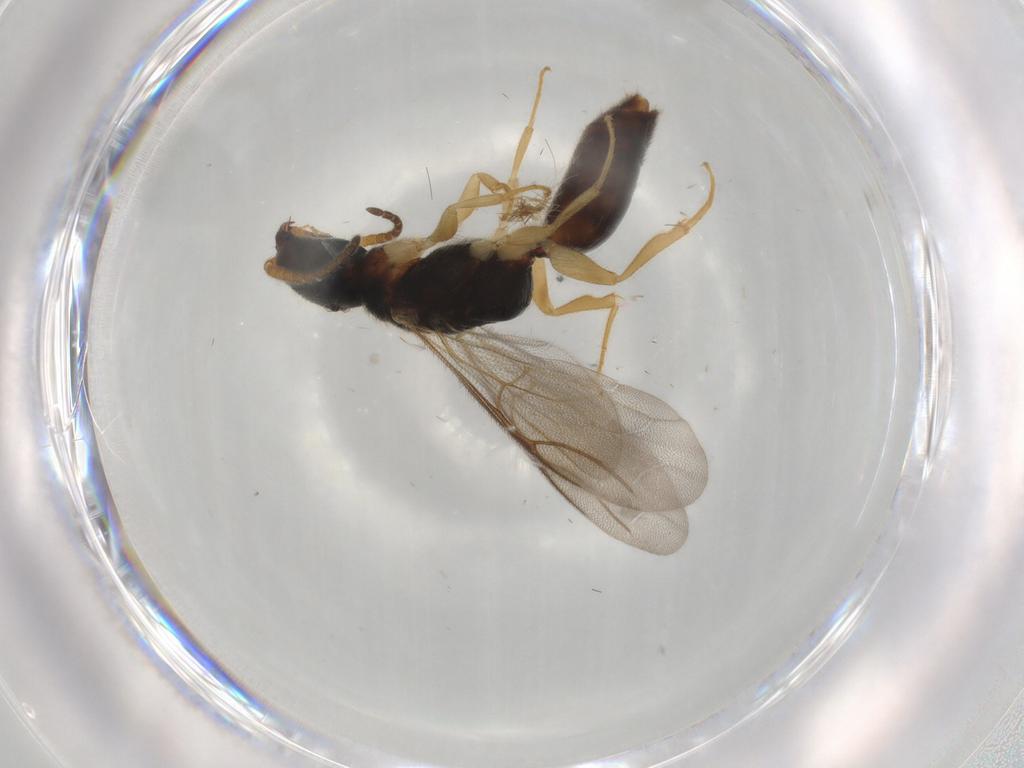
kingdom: Animalia
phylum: Arthropoda
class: Insecta
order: Hymenoptera
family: Bethylidae
